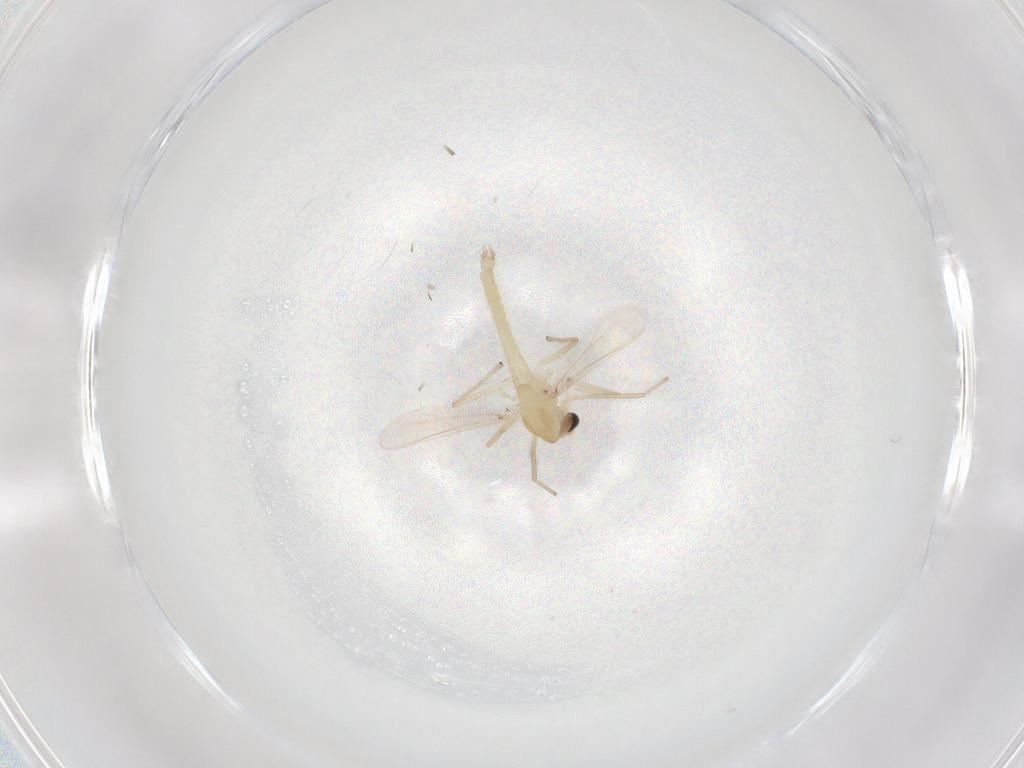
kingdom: Animalia
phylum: Arthropoda
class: Insecta
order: Diptera
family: Chironomidae
